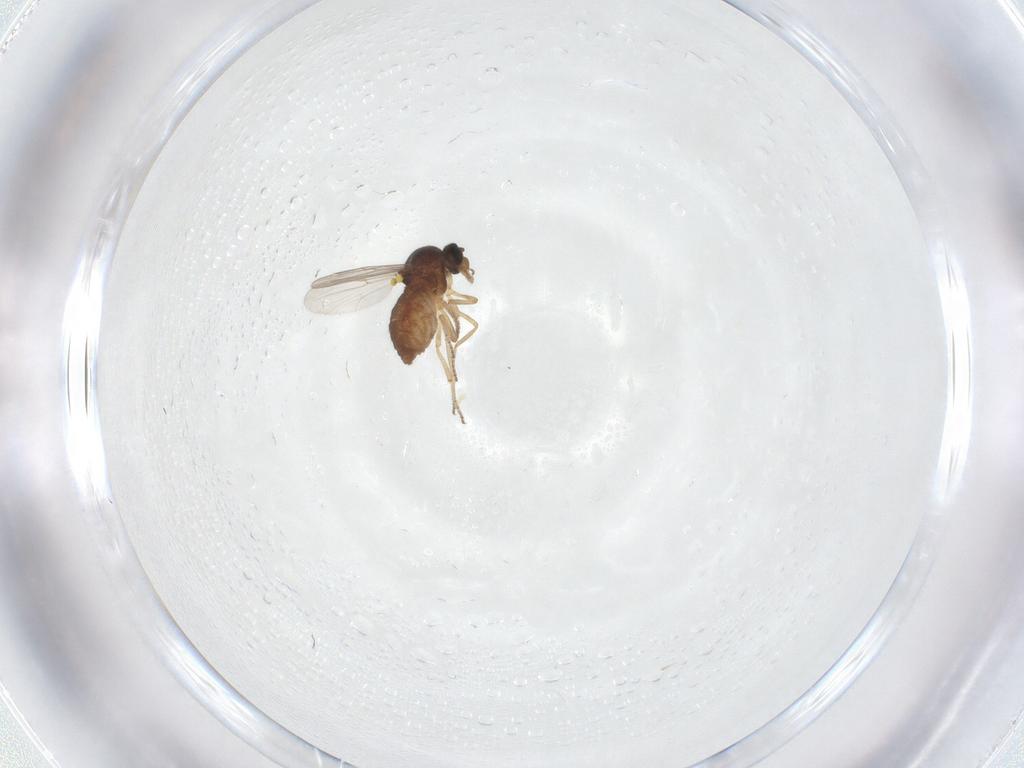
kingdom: Animalia
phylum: Arthropoda
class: Insecta
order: Diptera
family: Ceratopogonidae
